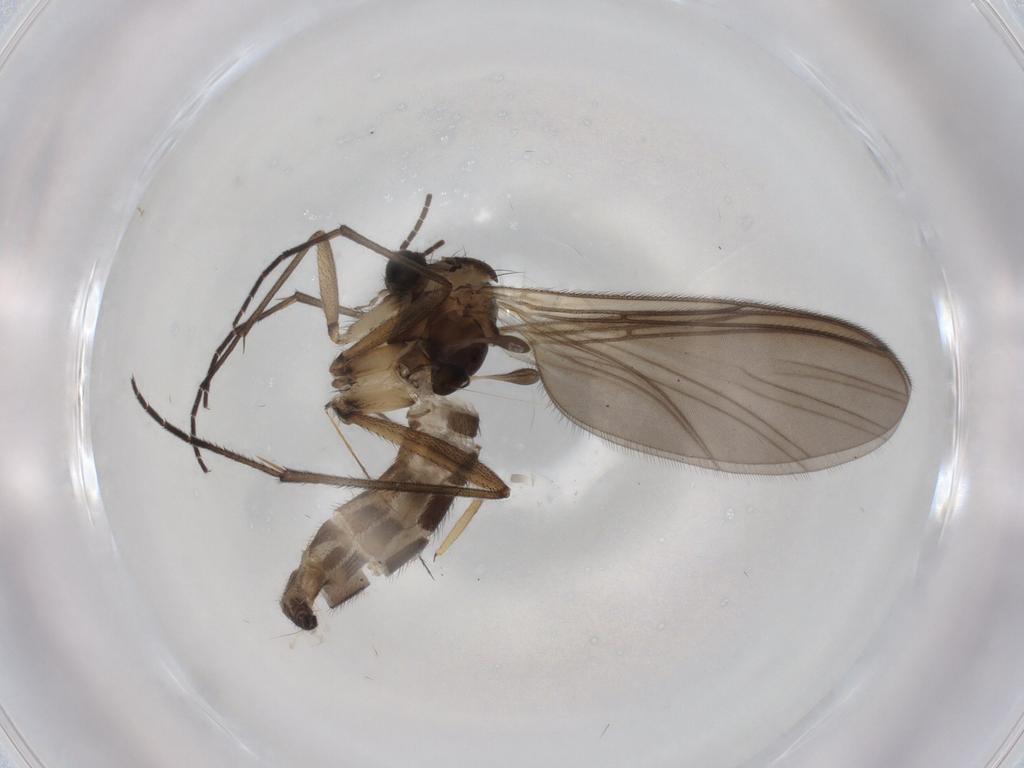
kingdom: Animalia
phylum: Arthropoda
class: Insecta
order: Diptera
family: Sciaridae
